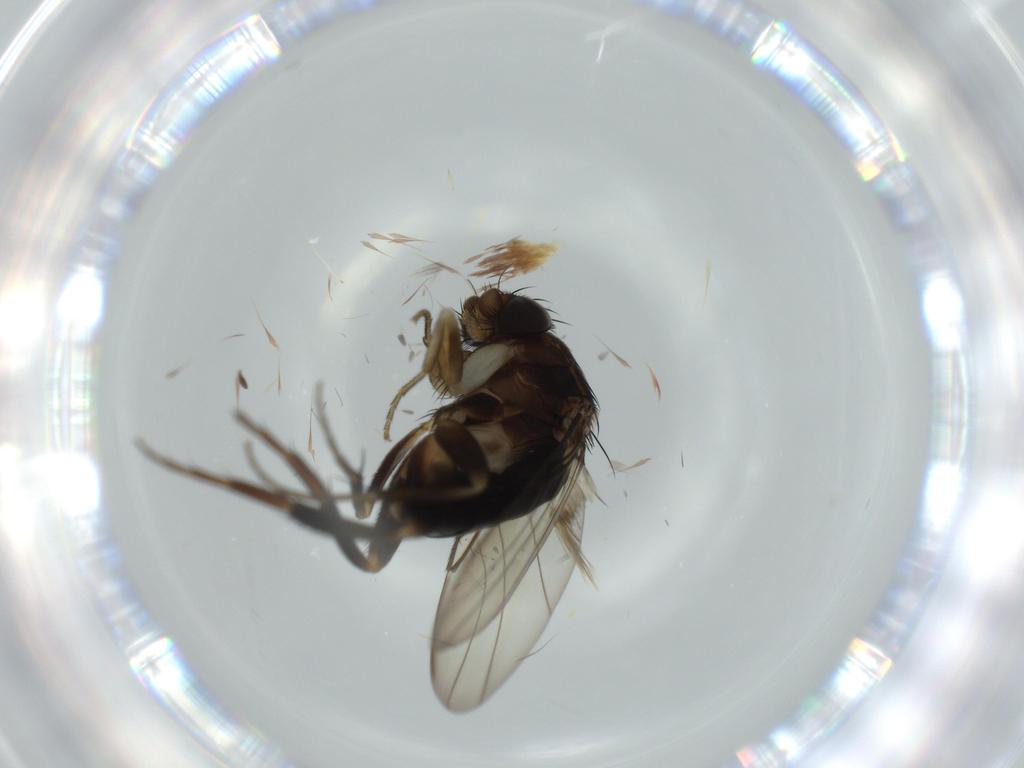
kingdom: Animalia
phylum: Arthropoda
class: Insecta
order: Diptera
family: Phoridae
